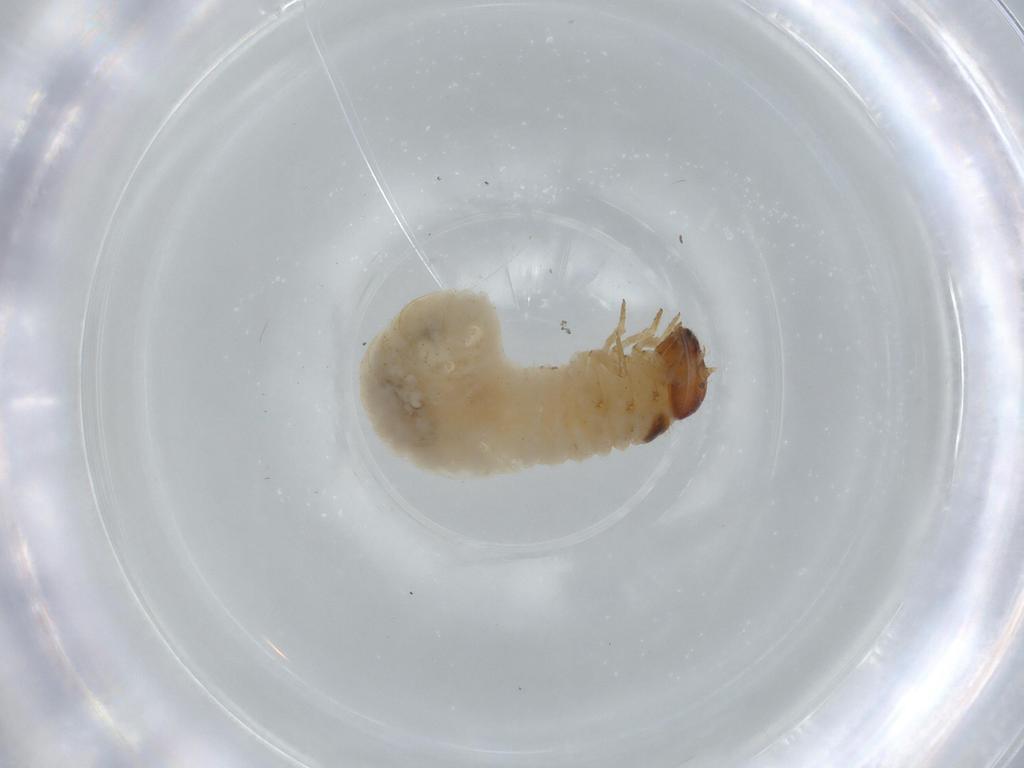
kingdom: Animalia
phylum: Arthropoda
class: Insecta
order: Coleoptera
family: Chrysomelidae
